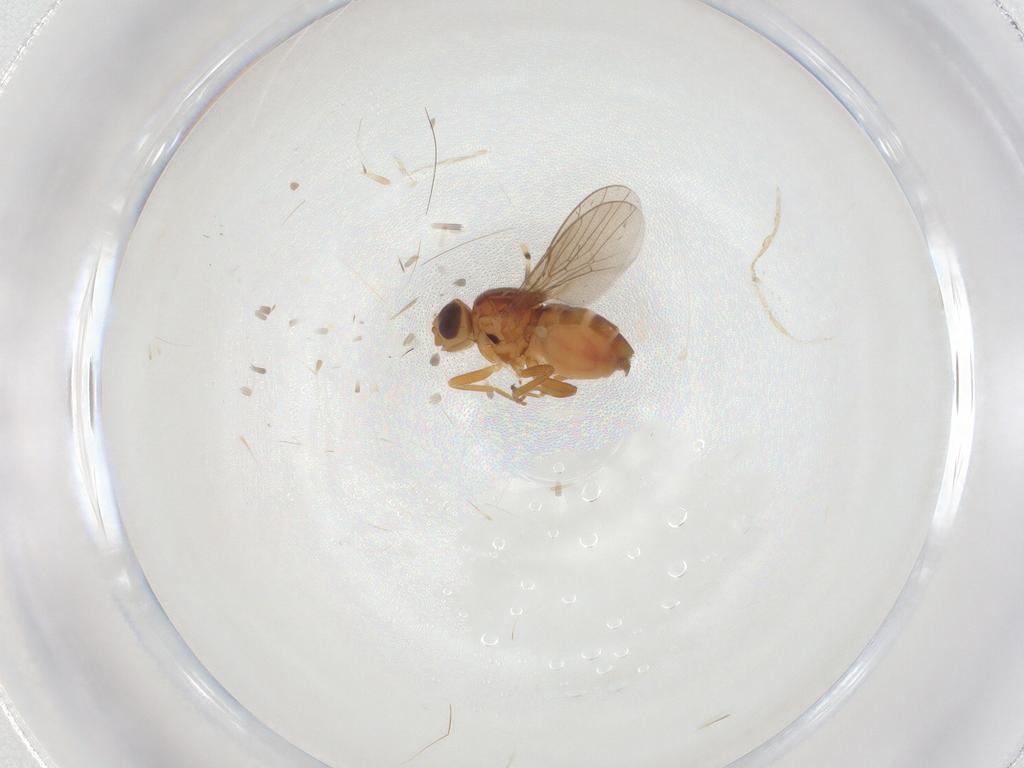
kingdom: Animalia
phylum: Arthropoda
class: Insecta
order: Diptera
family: Chloropidae
